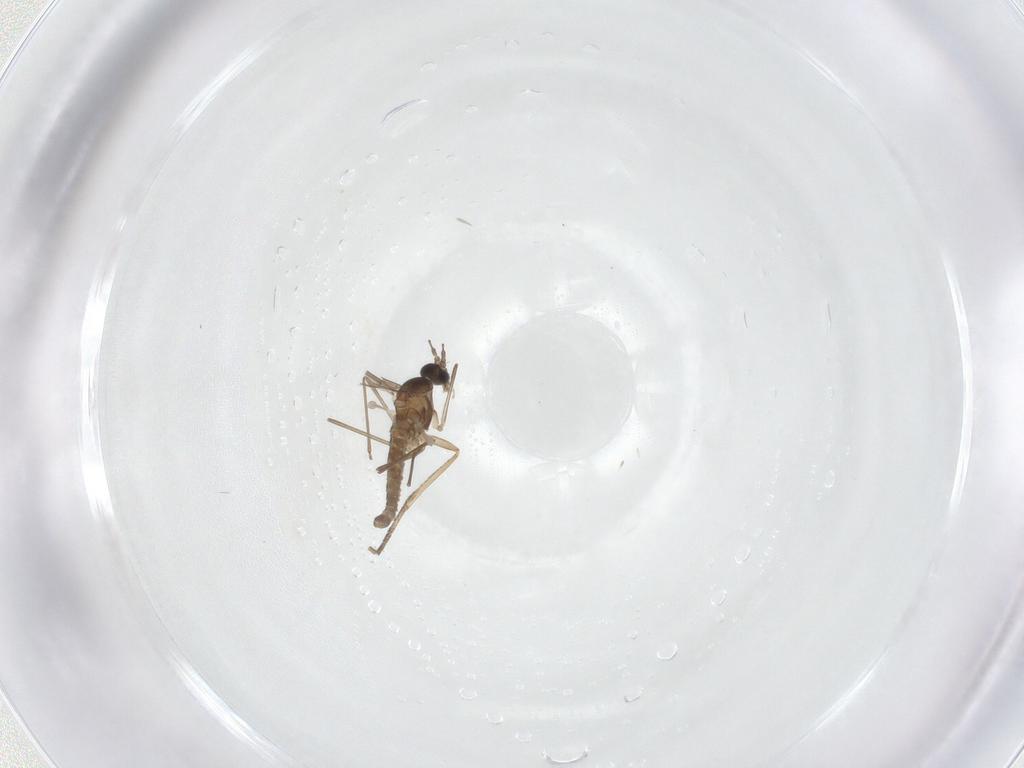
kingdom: Animalia
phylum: Arthropoda
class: Insecta
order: Diptera
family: Cecidomyiidae
